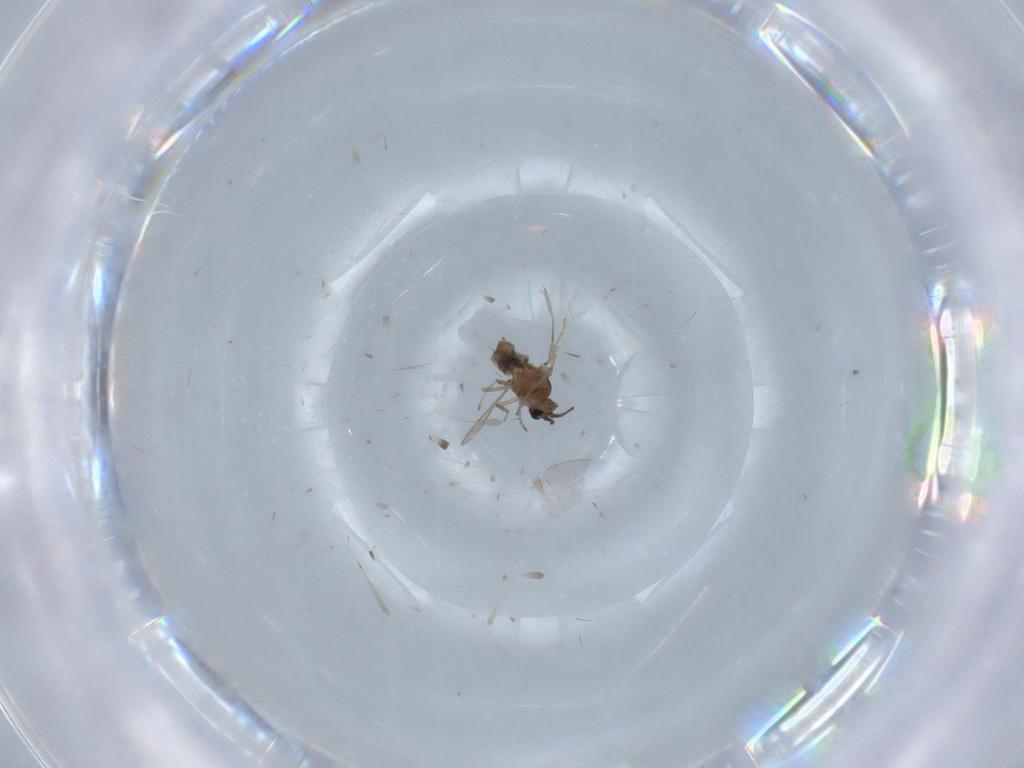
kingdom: Animalia
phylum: Arthropoda
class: Insecta
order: Diptera
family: Ceratopogonidae
